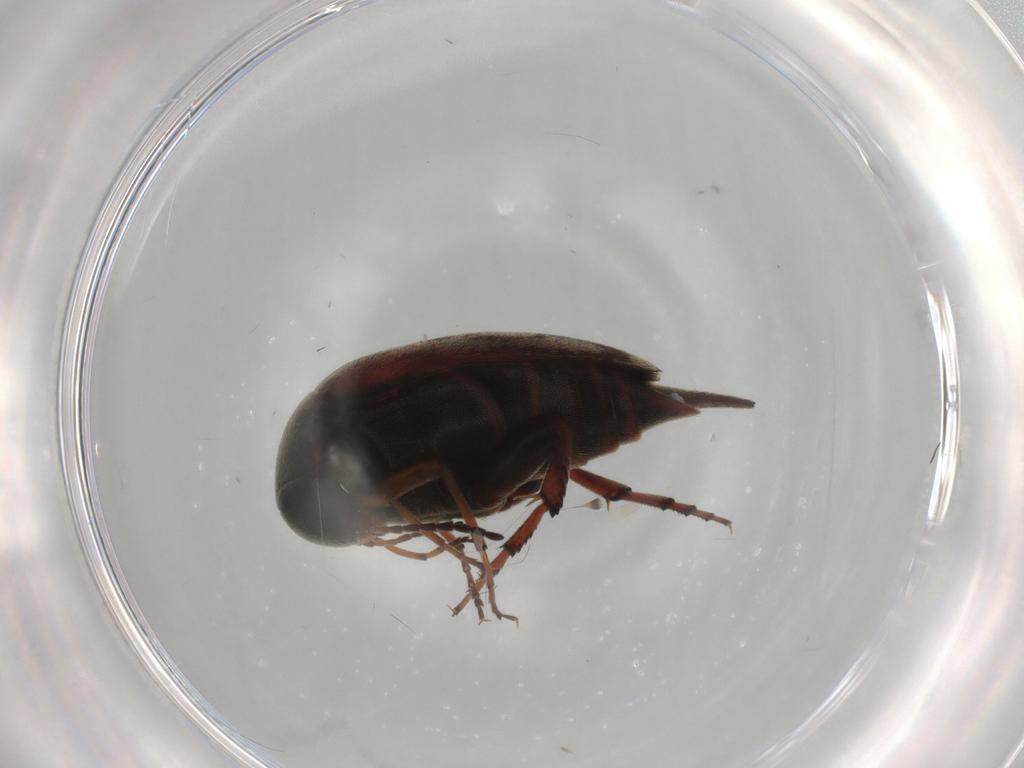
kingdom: Animalia
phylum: Arthropoda
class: Insecta
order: Coleoptera
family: Mordellidae
